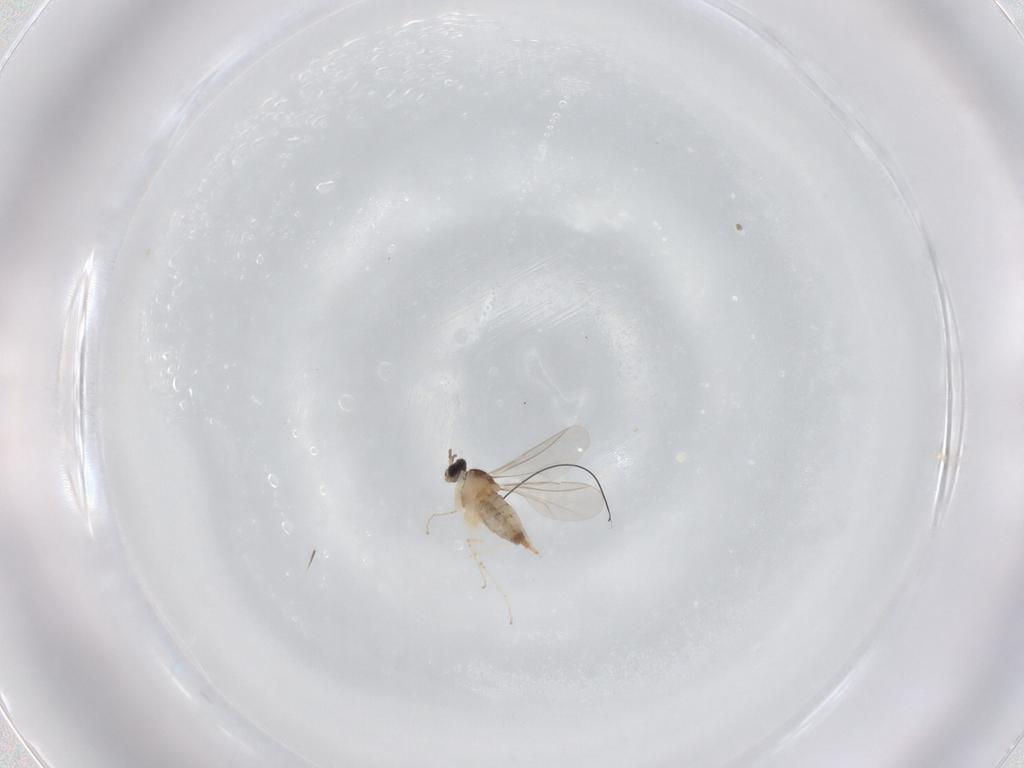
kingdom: Animalia
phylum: Arthropoda
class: Insecta
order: Diptera
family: Cecidomyiidae
